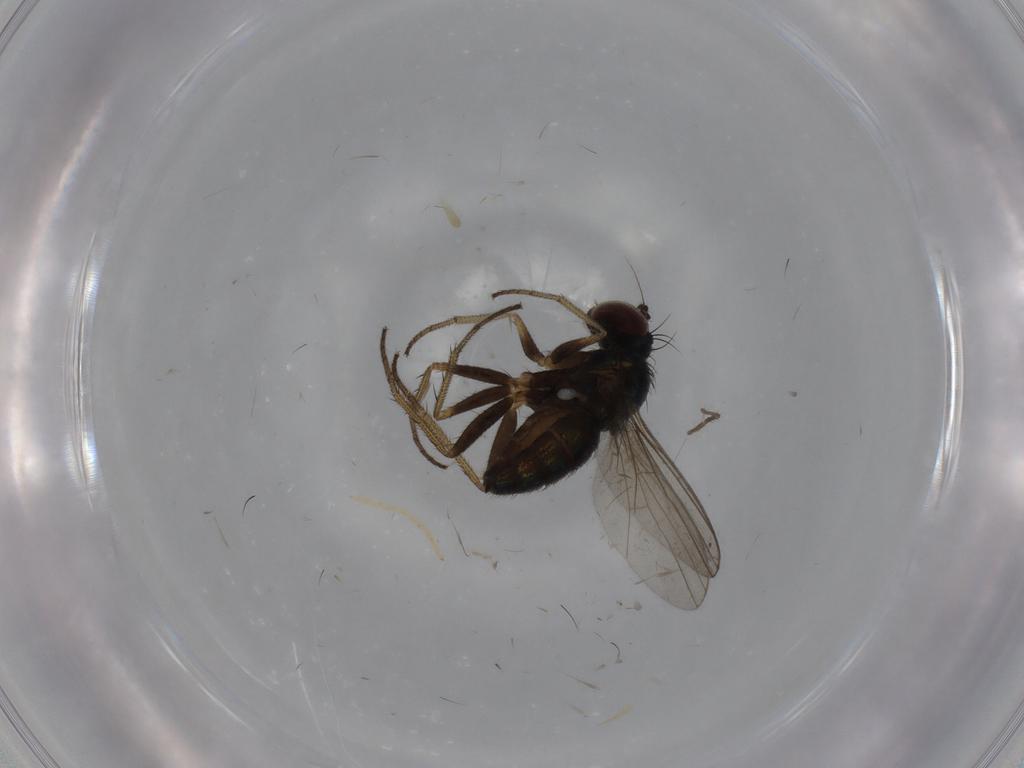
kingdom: Animalia
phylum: Arthropoda
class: Insecta
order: Diptera
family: Dolichopodidae
